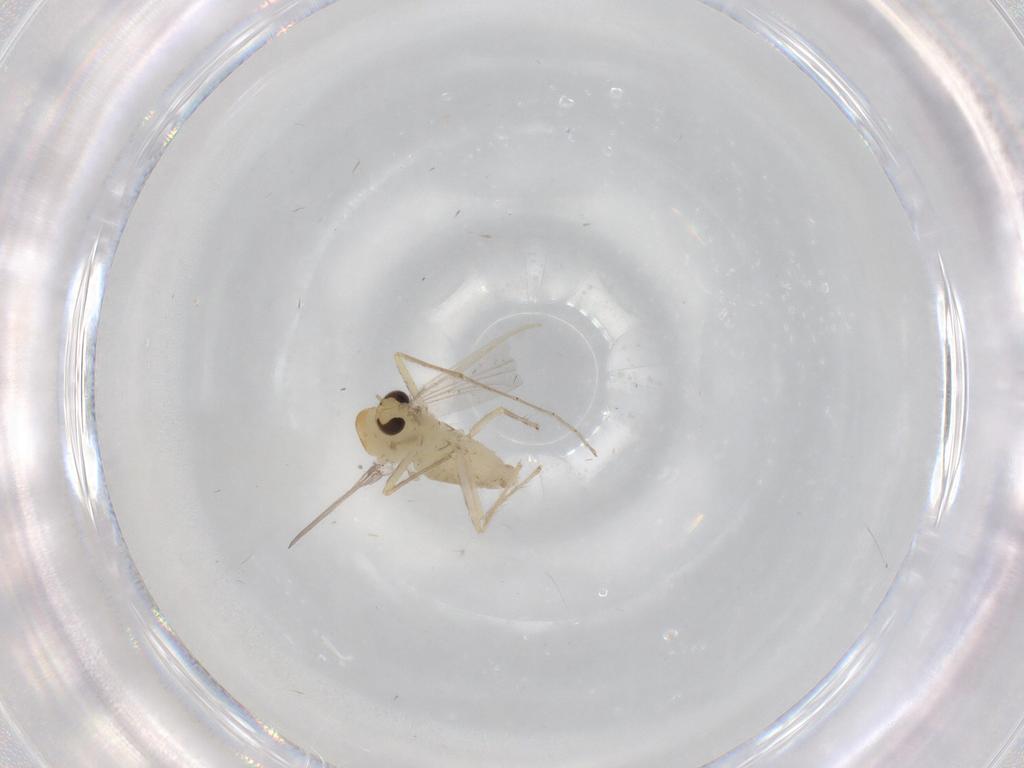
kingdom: Animalia
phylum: Arthropoda
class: Insecta
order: Diptera
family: Chironomidae
